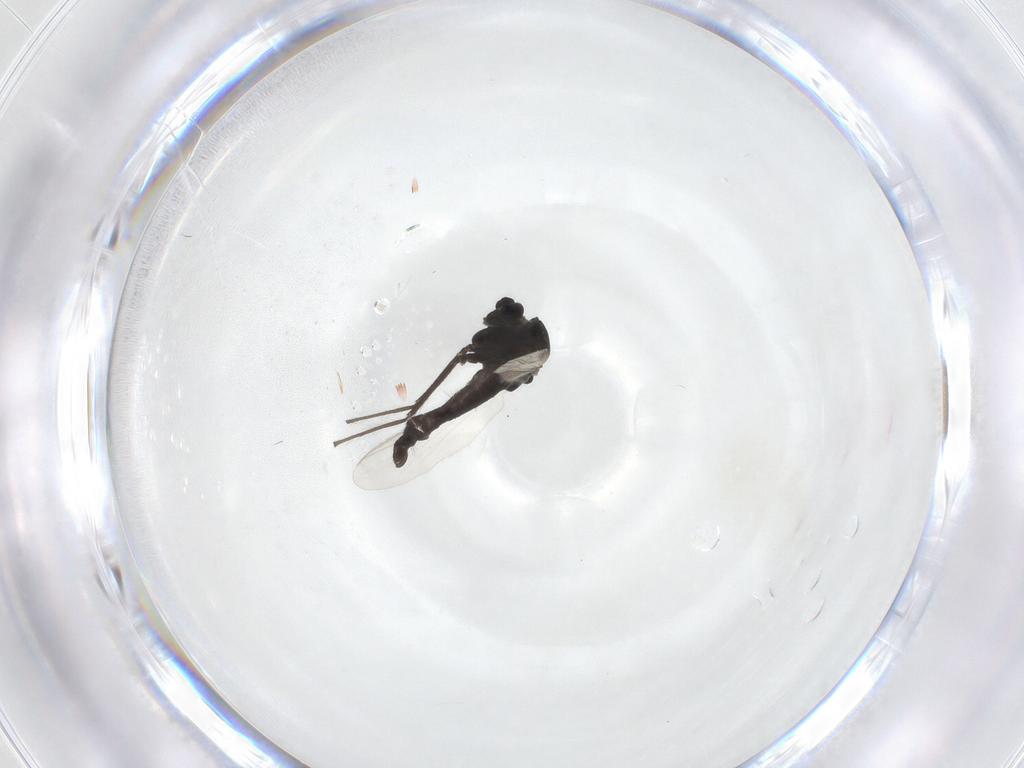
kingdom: Animalia
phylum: Arthropoda
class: Insecta
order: Diptera
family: Chironomidae
